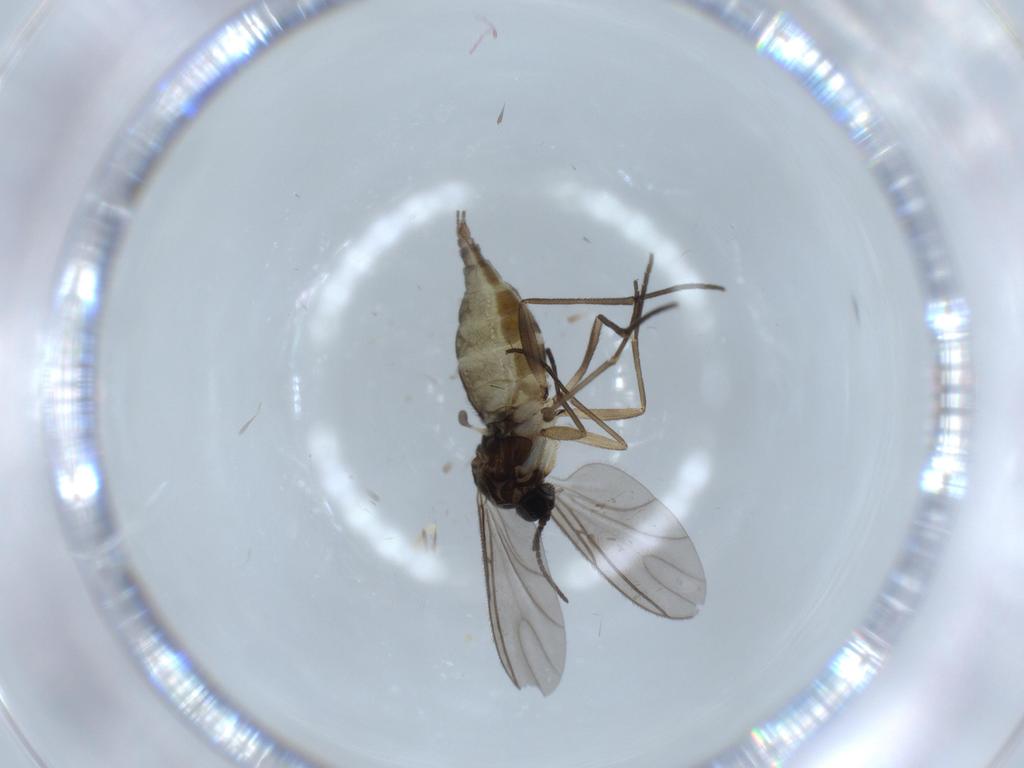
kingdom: Animalia
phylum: Arthropoda
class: Insecta
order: Diptera
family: Sciaridae
